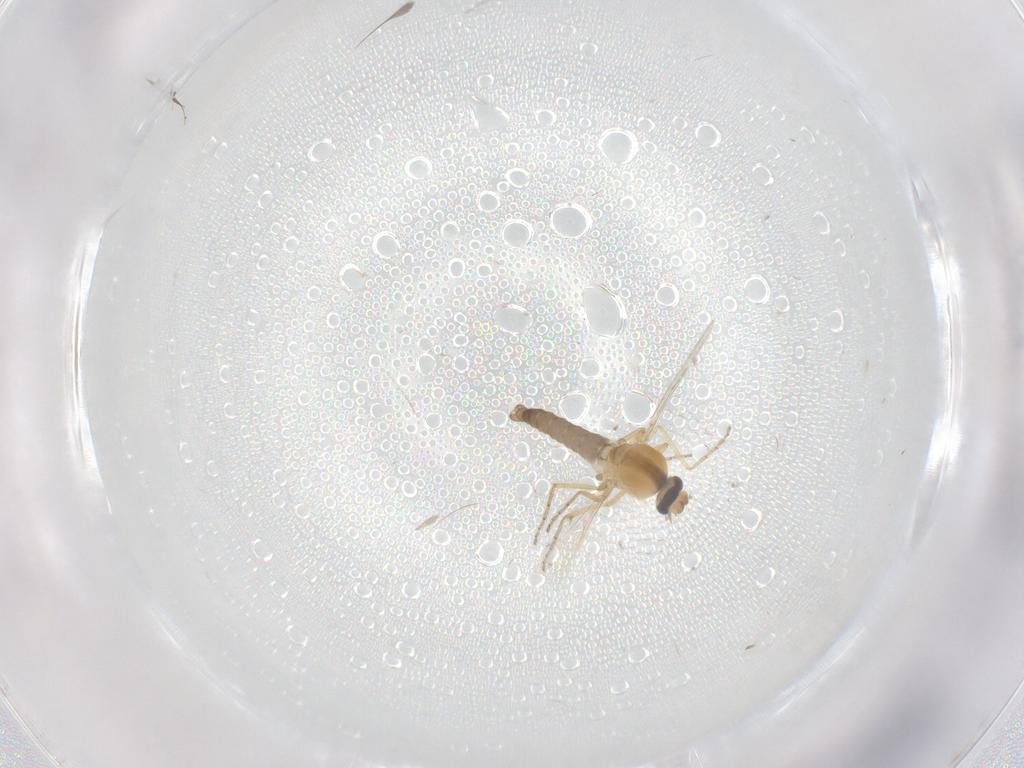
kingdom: Animalia
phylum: Arthropoda
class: Insecta
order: Diptera
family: Ceratopogonidae
